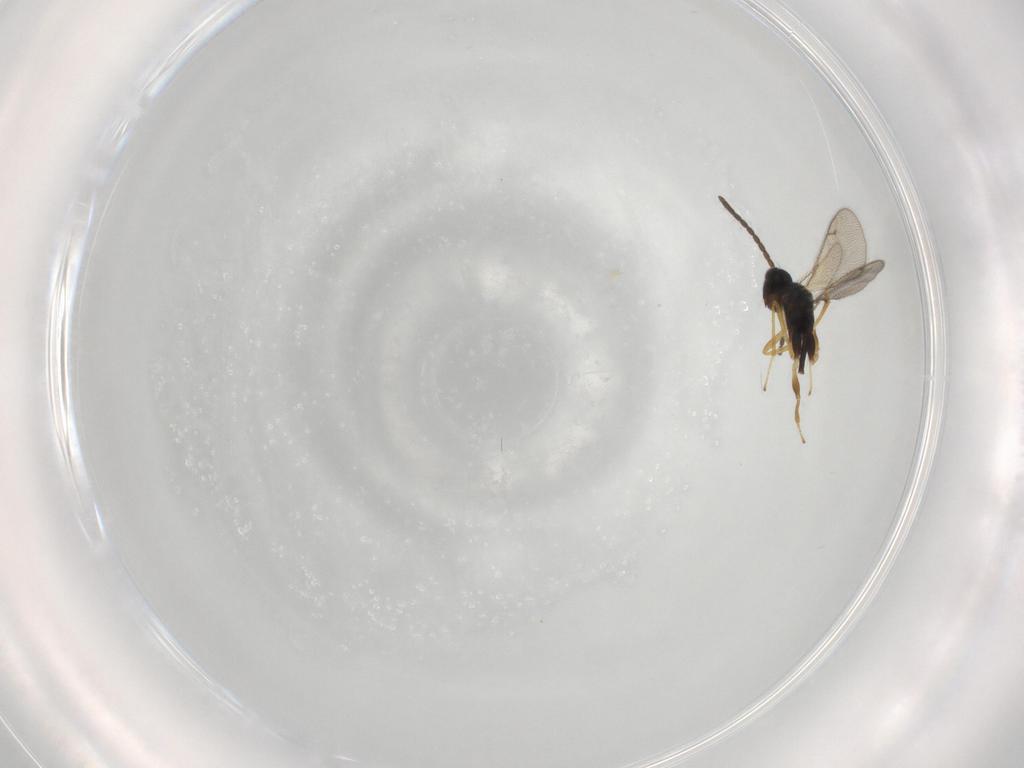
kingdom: Animalia
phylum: Arthropoda
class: Insecta
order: Hymenoptera
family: Diparidae
